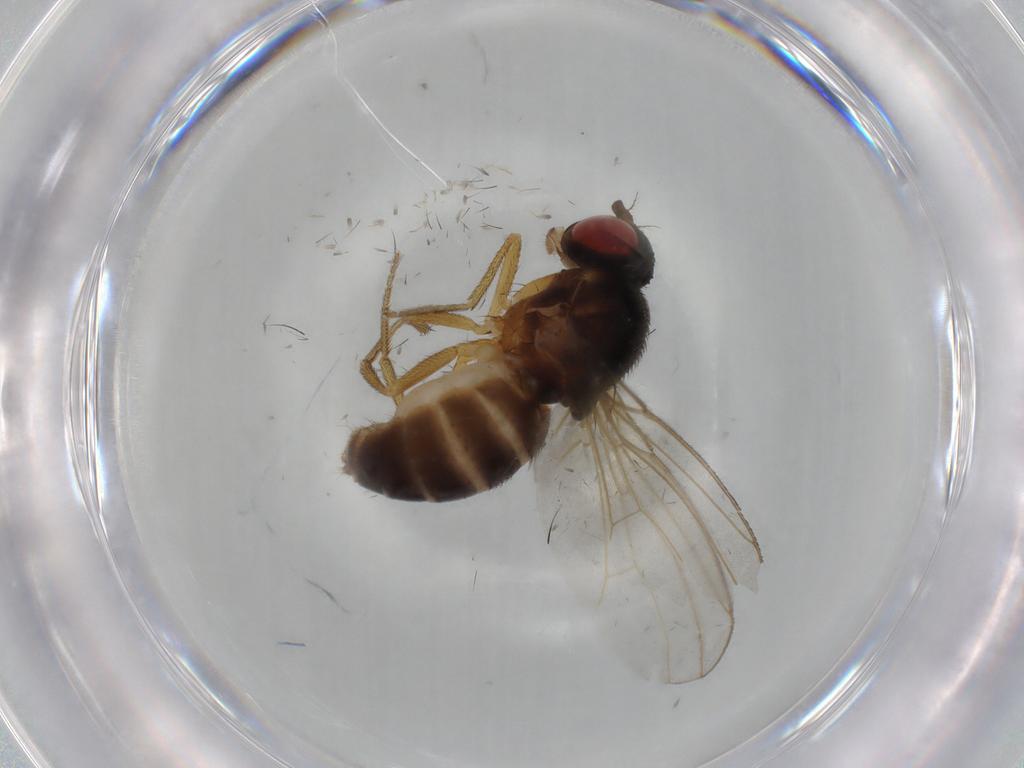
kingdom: Animalia
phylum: Arthropoda
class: Insecta
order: Diptera
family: Drosophilidae
